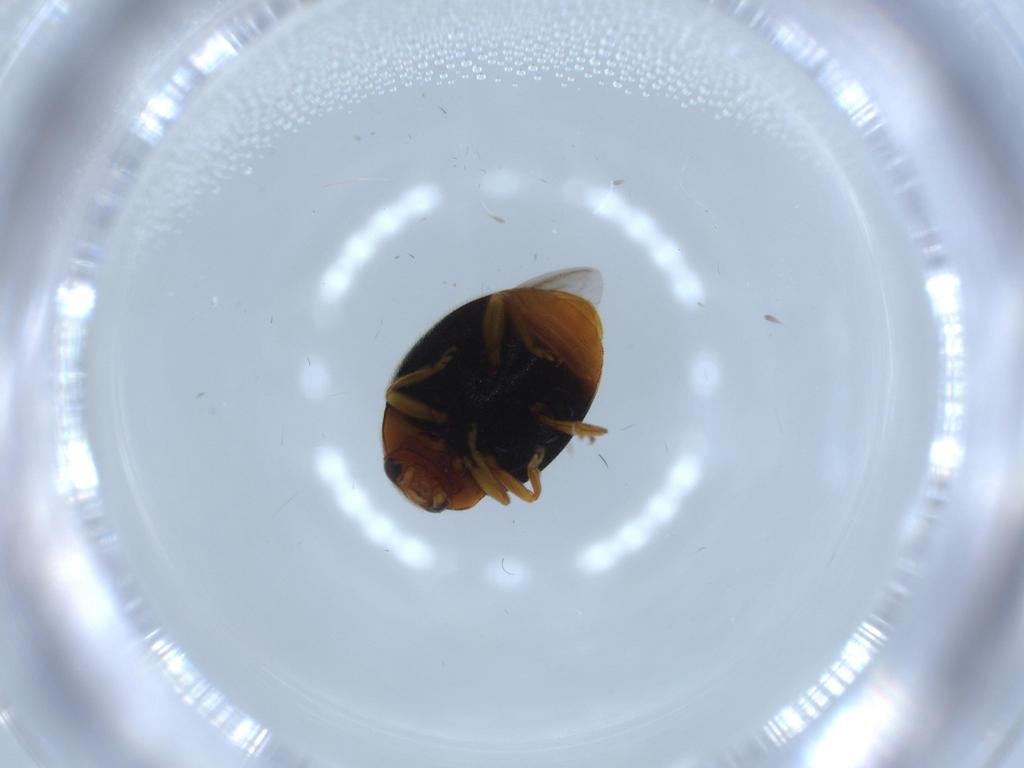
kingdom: Animalia
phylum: Arthropoda
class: Insecta
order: Coleoptera
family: Coccinellidae
